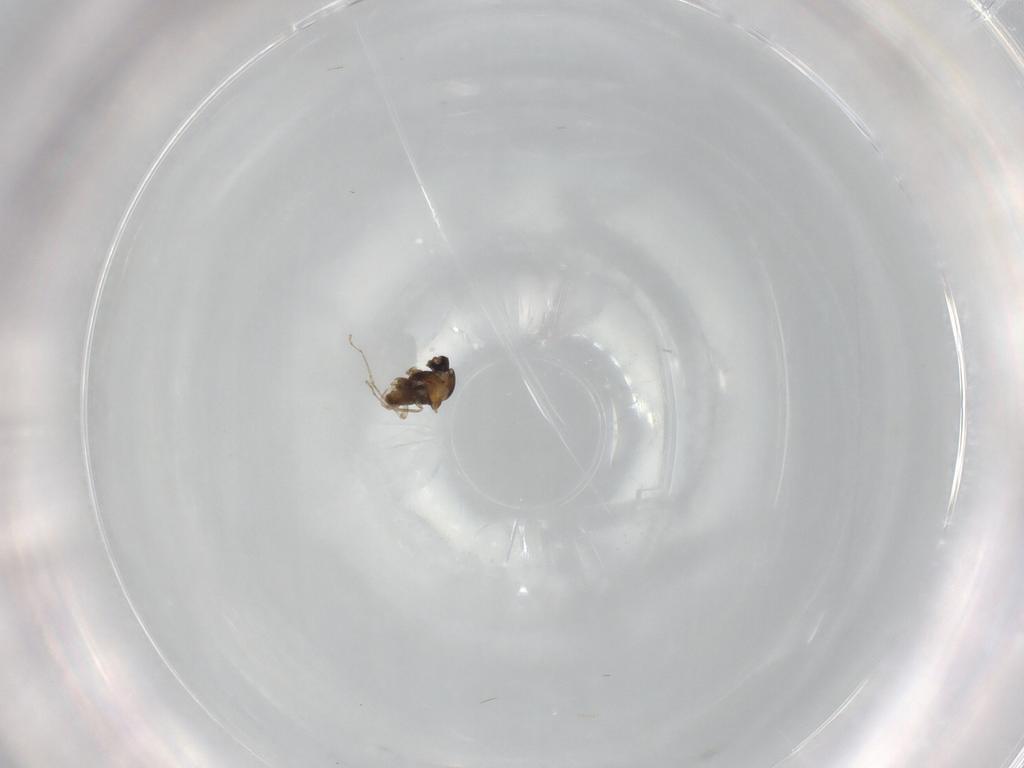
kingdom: Animalia
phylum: Arthropoda
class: Insecta
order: Diptera
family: Cecidomyiidae
